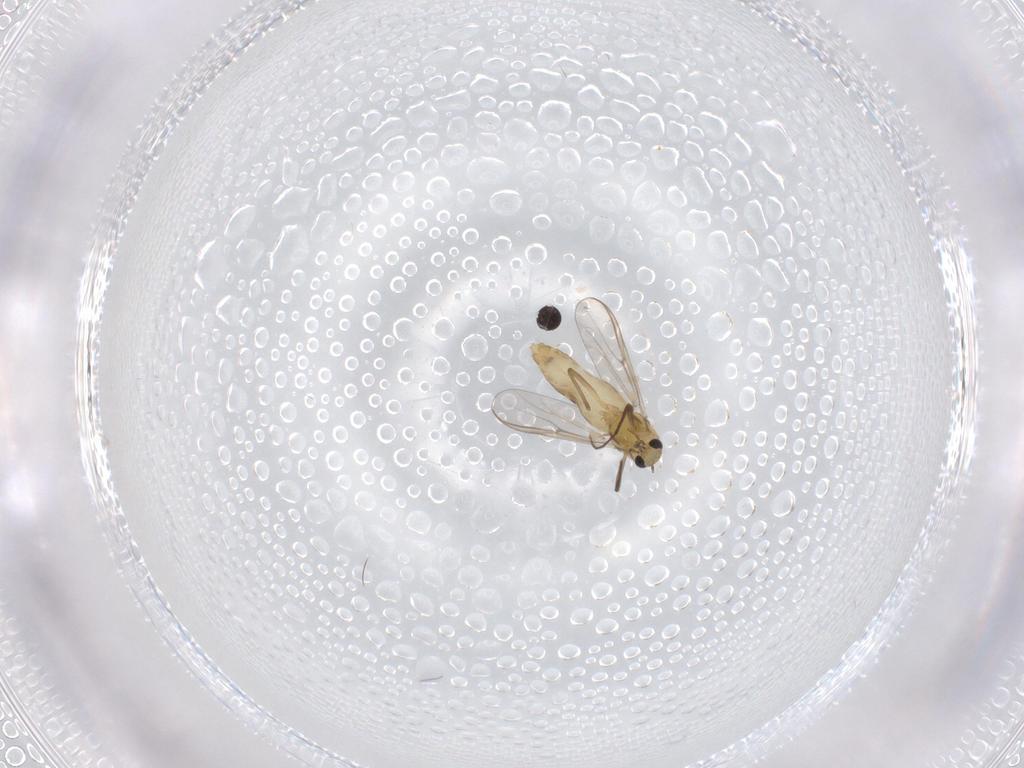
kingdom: Animalia
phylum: Arthropoda
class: Insecta
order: Diptera
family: Chironomidae
